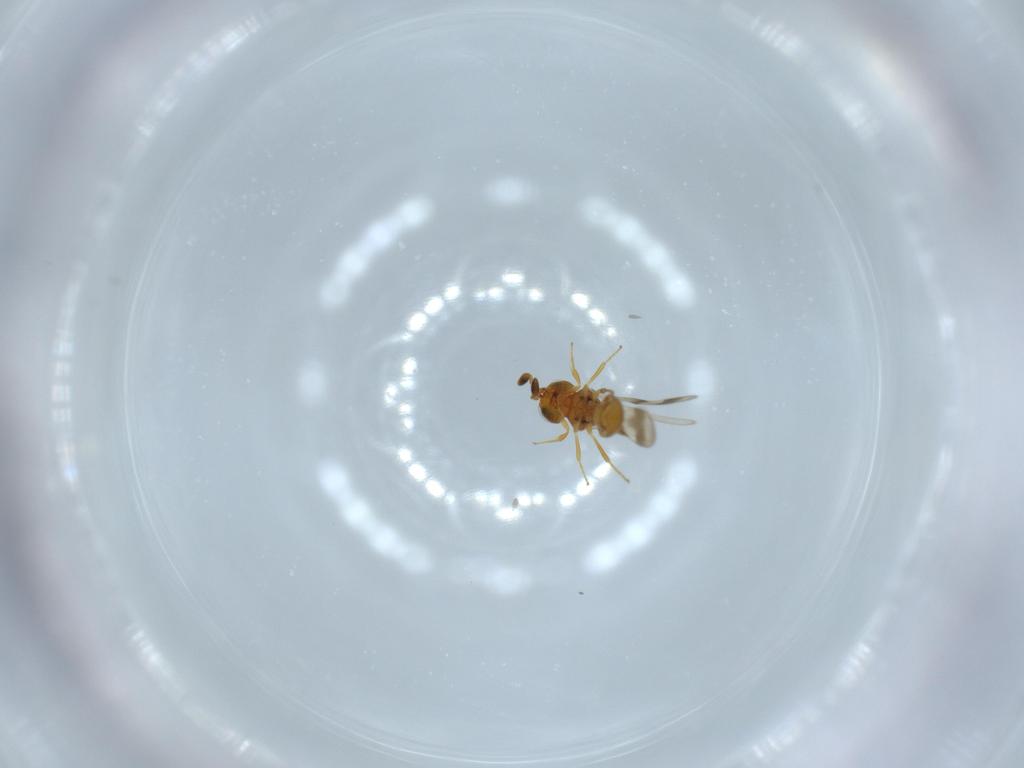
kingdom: Animalia
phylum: Arthropoda
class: Insecta
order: Hymenoptera
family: Scelionidae
